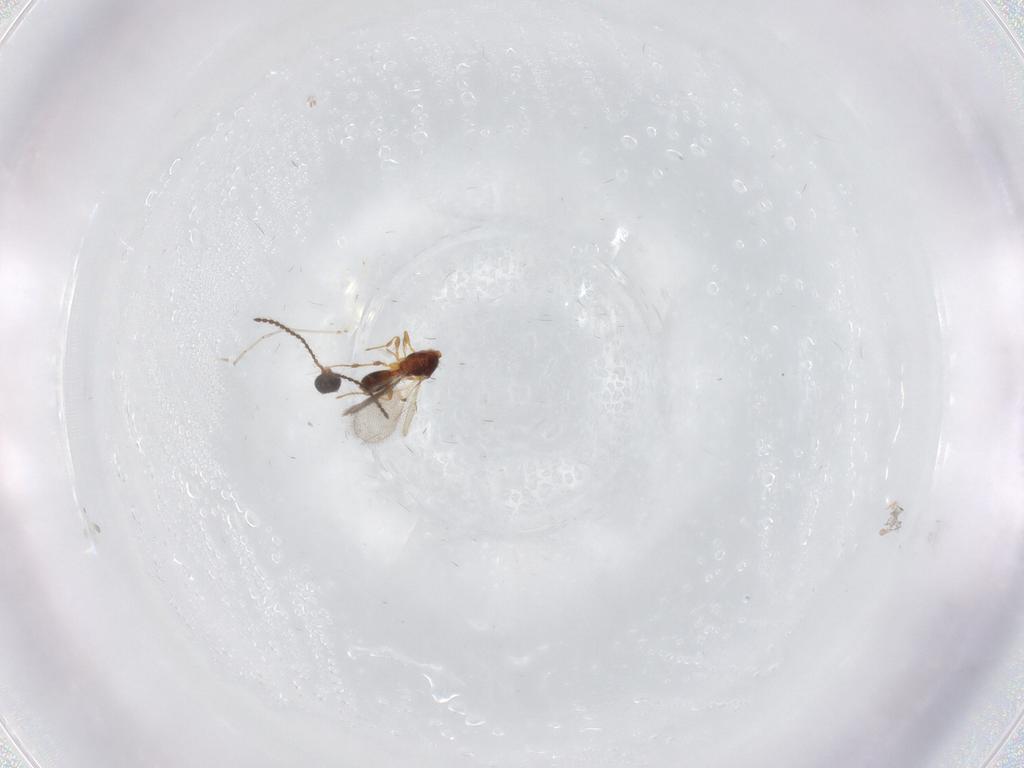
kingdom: Animalia
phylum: Arthropoda
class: Insecta
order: Hymenoptera
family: Diapriidae
